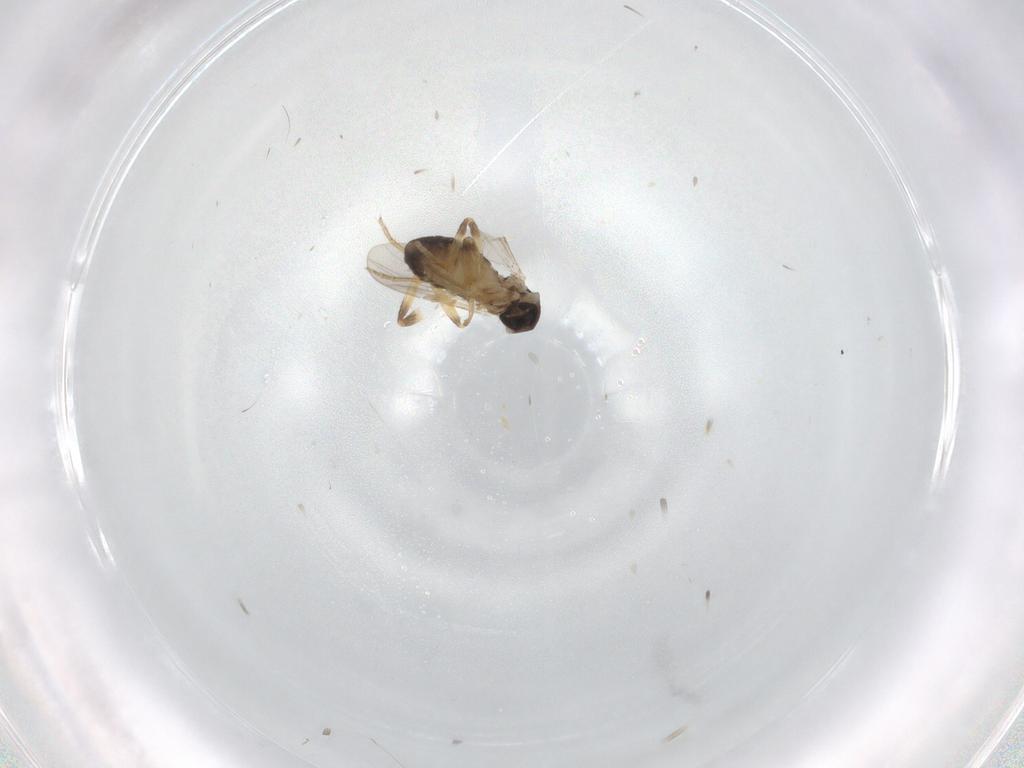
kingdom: Animalia
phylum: Arthropoda
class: Insecta
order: Diptera
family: Ceratopogonidae
